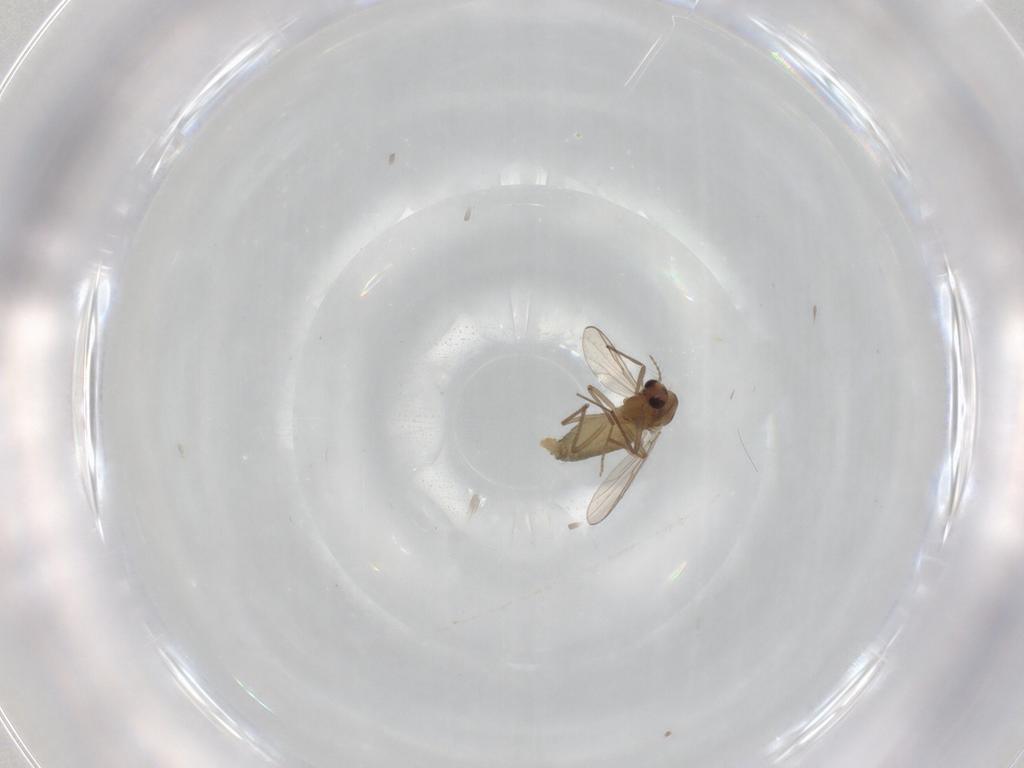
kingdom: Animalia
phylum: Arthropoda
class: Insecta
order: Diptera
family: Chironomidae
